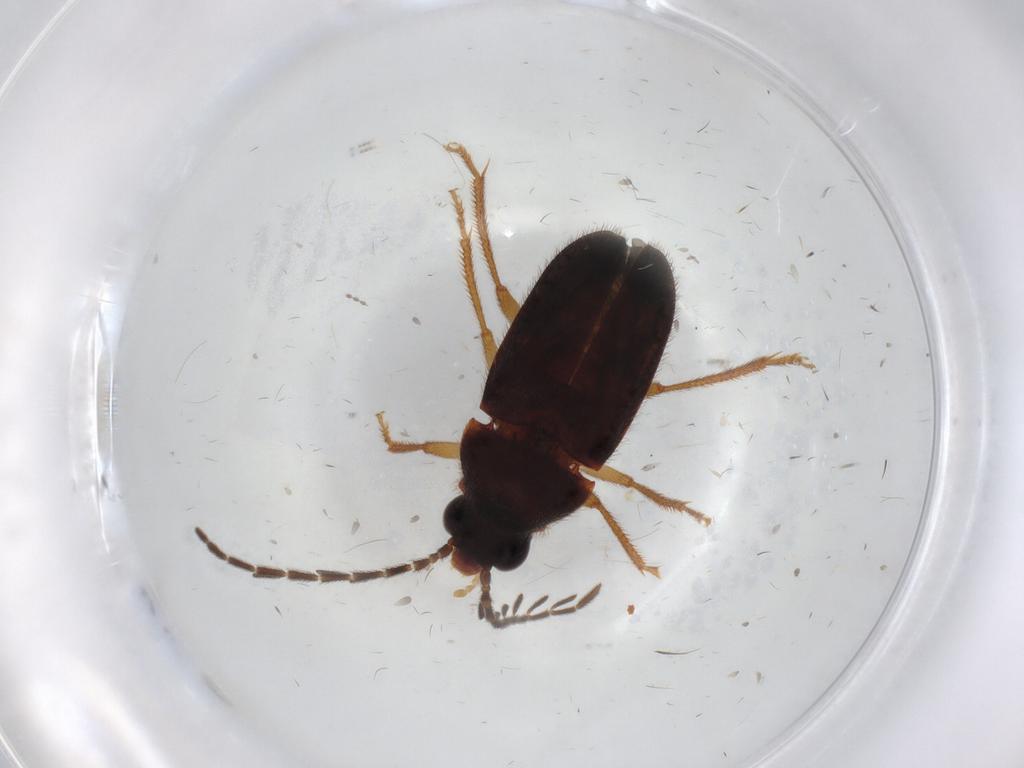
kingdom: Animalia
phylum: Arthropoda
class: Insecta
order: Coleoptera
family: Ptilodactylidae
